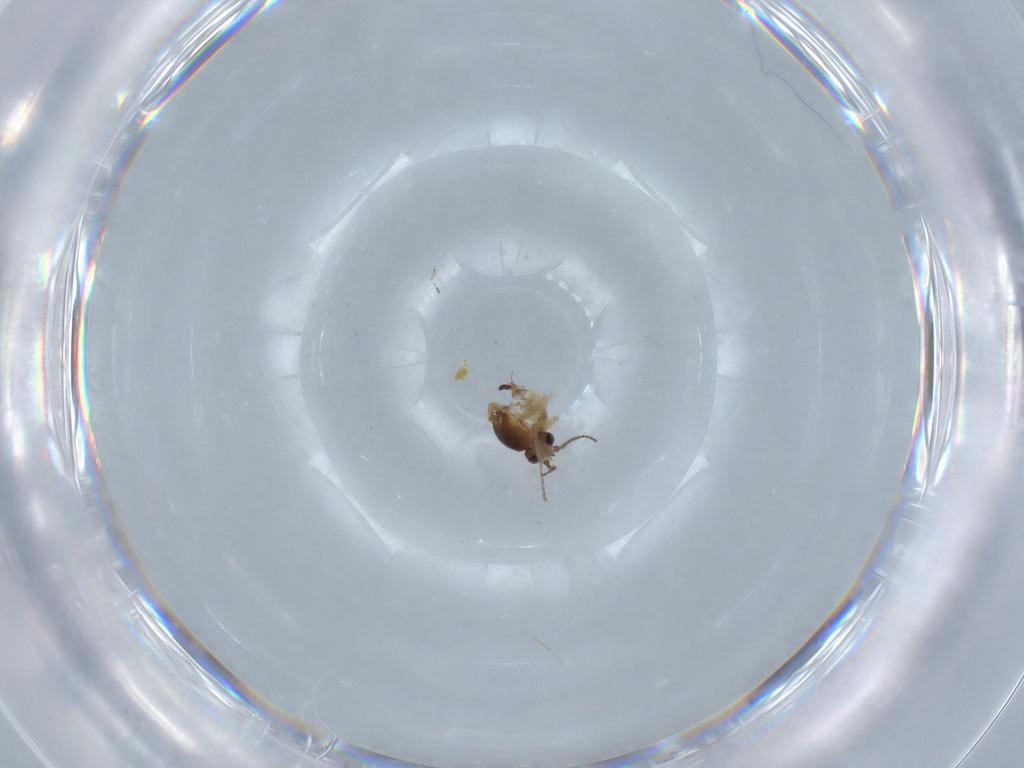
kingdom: Animalia
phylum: Arthropoda
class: Insecta
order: Diptera
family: Ceratopogonidae
